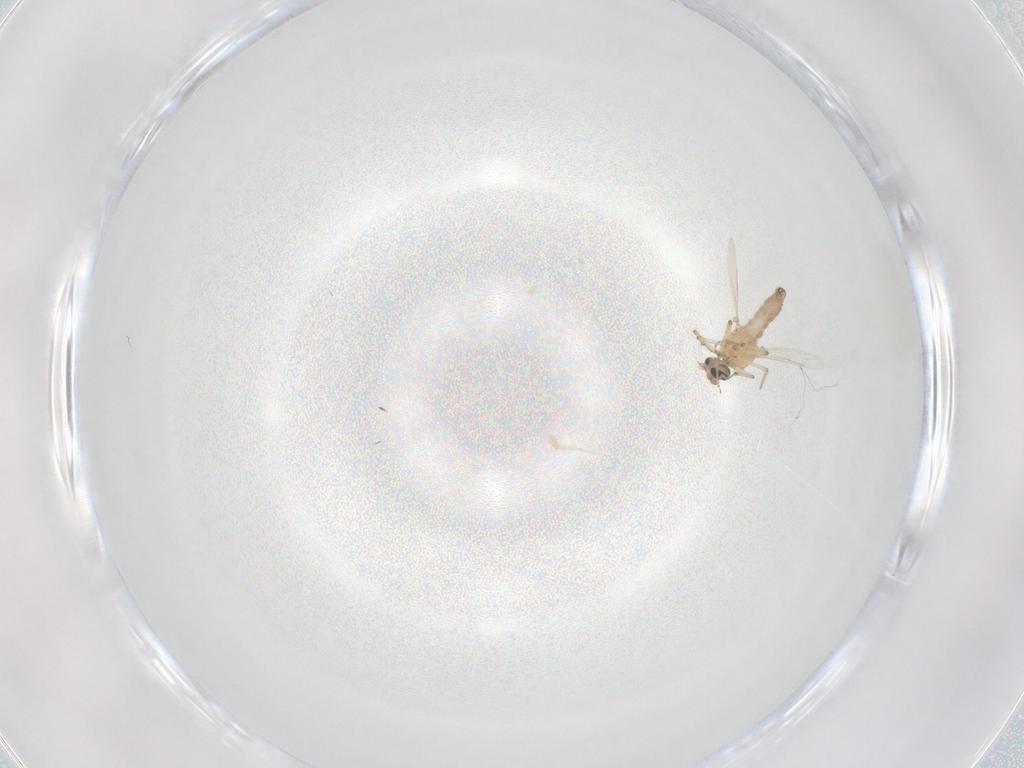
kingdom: Animalia
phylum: Arthropoda
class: Insecta
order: Diptera
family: Chironomidae
